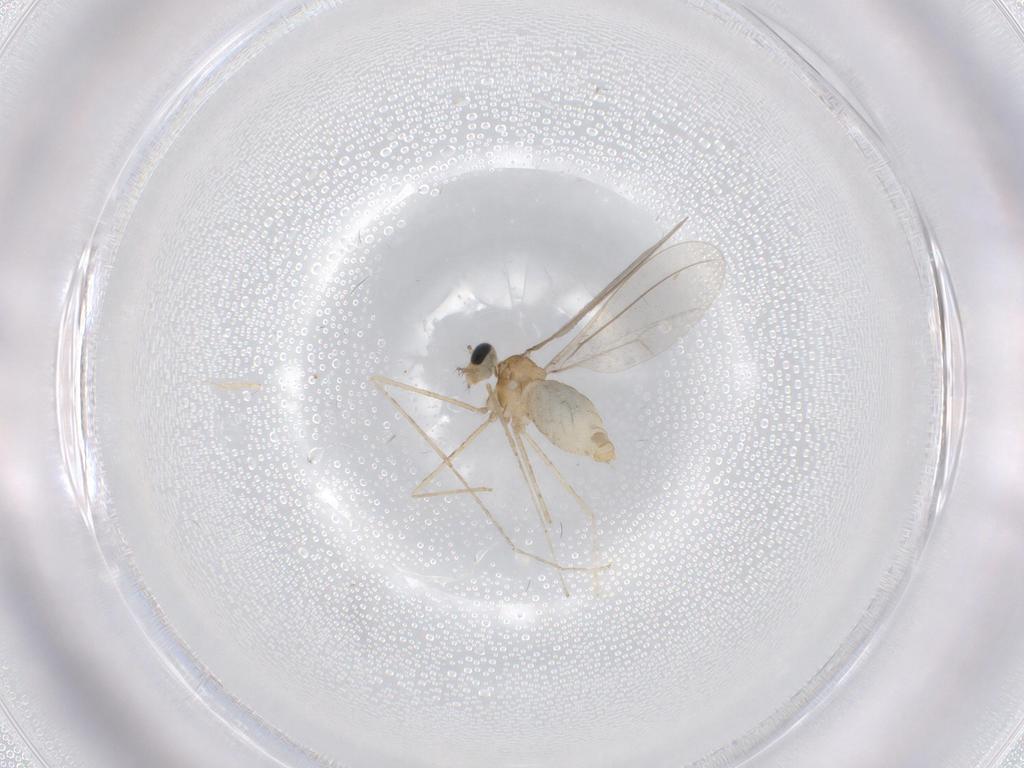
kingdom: Animalia
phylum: Arthropoda
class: Insecta
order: Diptera
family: Cecidomyiidae
